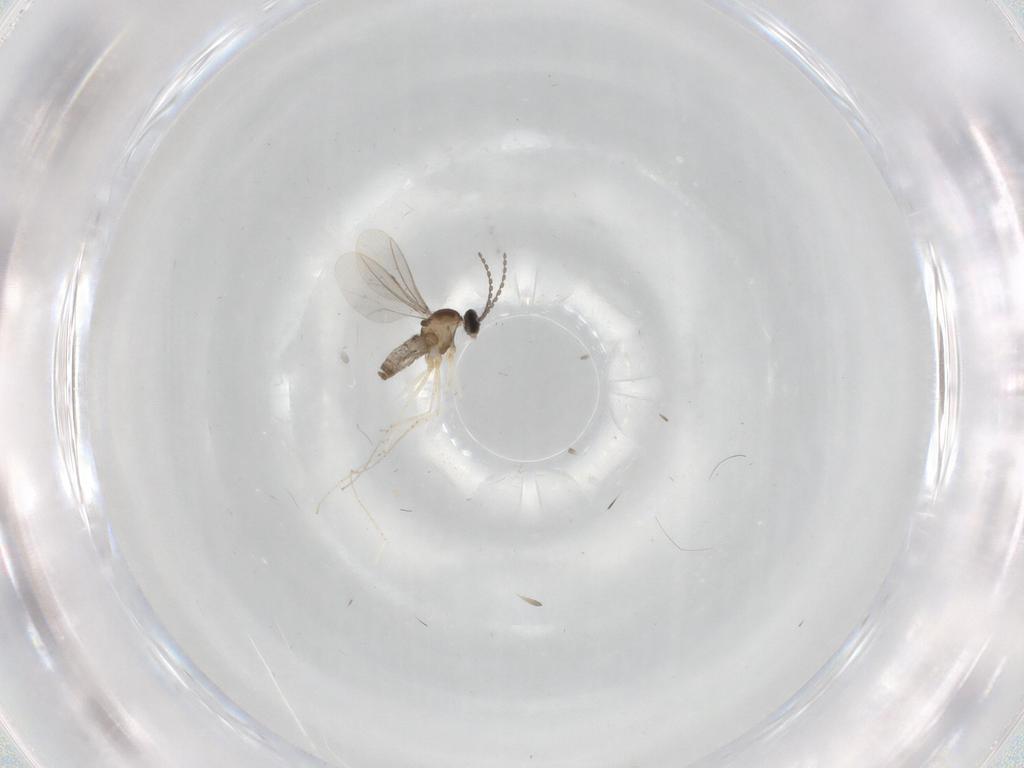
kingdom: Animalia
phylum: Arthropoda
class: Insecta
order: Diptera
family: Cecidomyiidae
